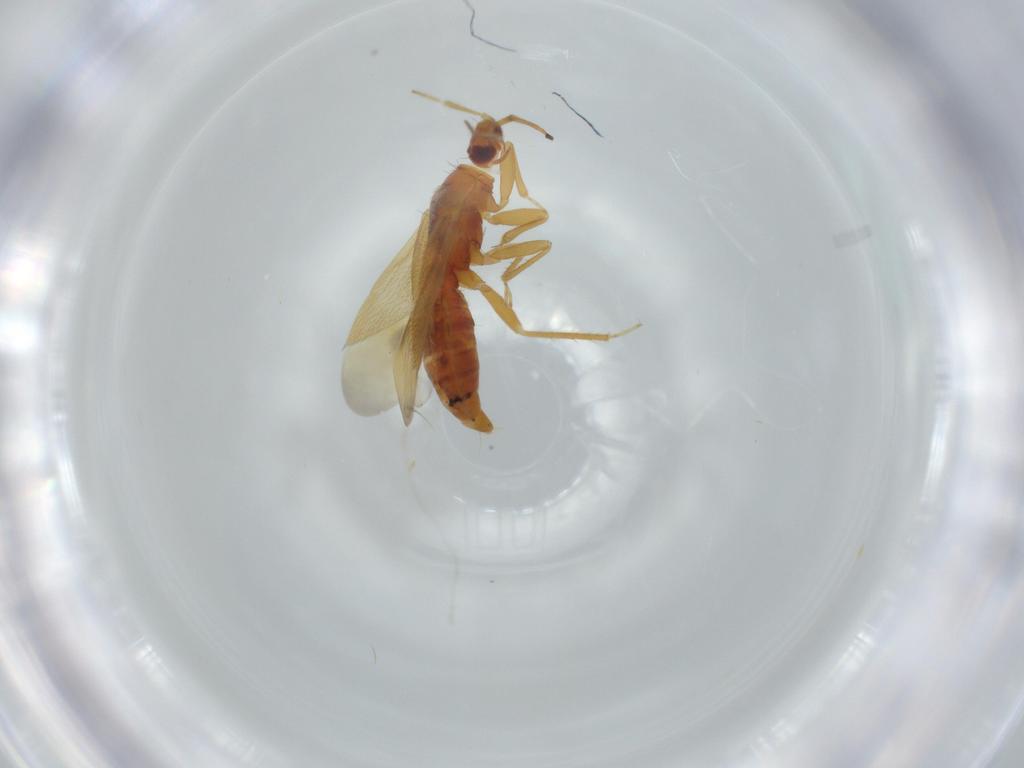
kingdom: Animalia
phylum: Arthropoda
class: Insecta
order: Hemiptera
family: Anthocoridae
